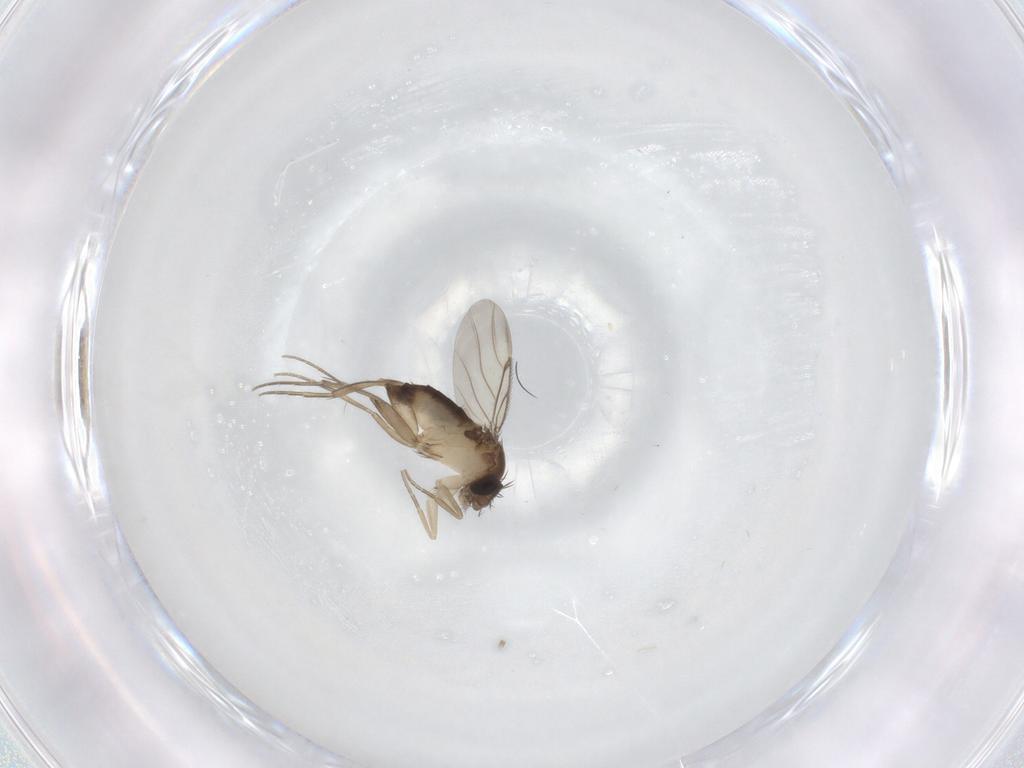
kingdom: Animalia
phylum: Arthropoda
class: Insecta
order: Diptera
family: Phoridae
